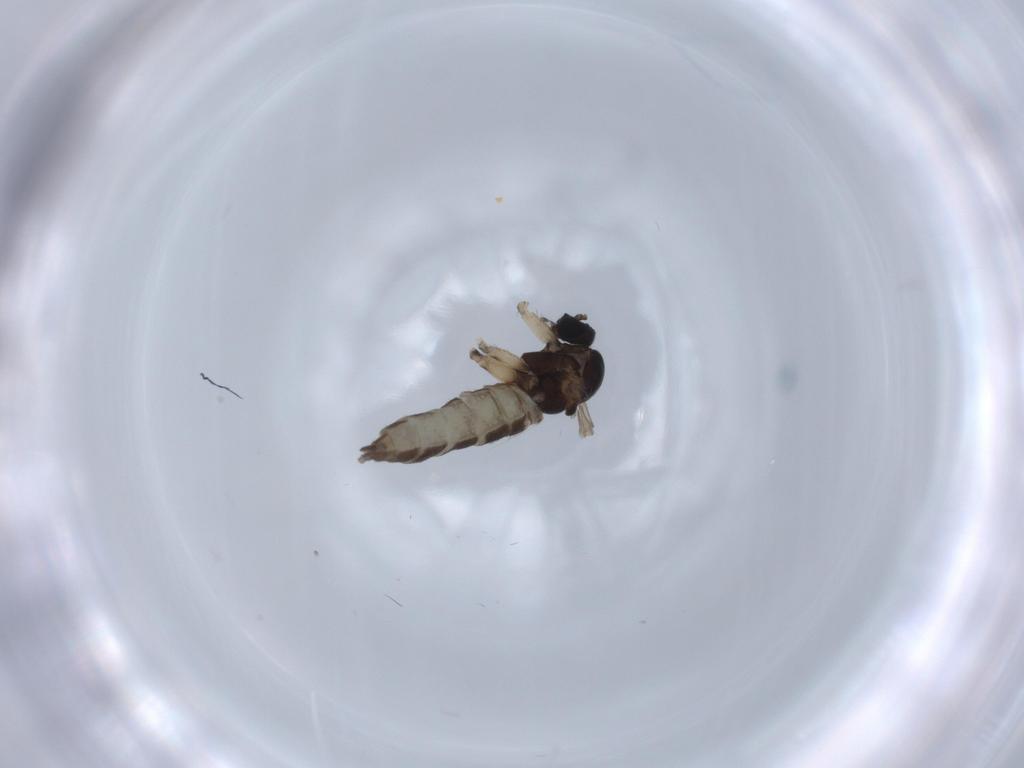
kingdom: Animalia
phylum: Arthropoda
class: Insecta
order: Diptera
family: Sciaridae
